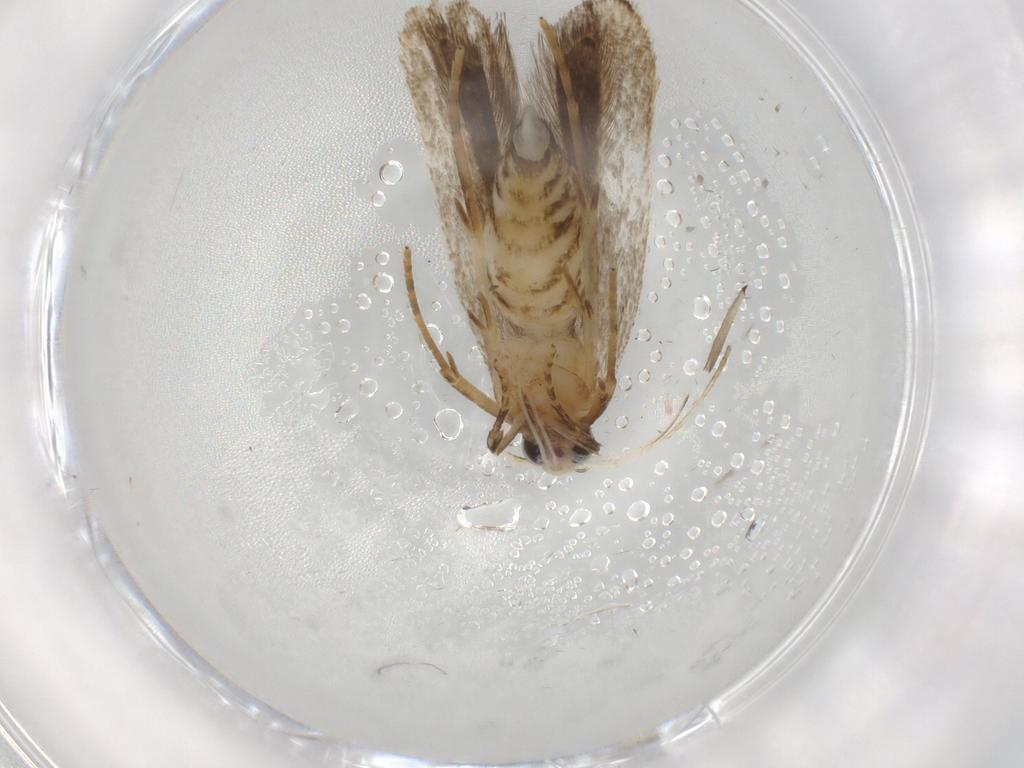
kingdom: Animalia
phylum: Arthropoda
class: Insecta
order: Lepidoptera
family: Gelechiidae
